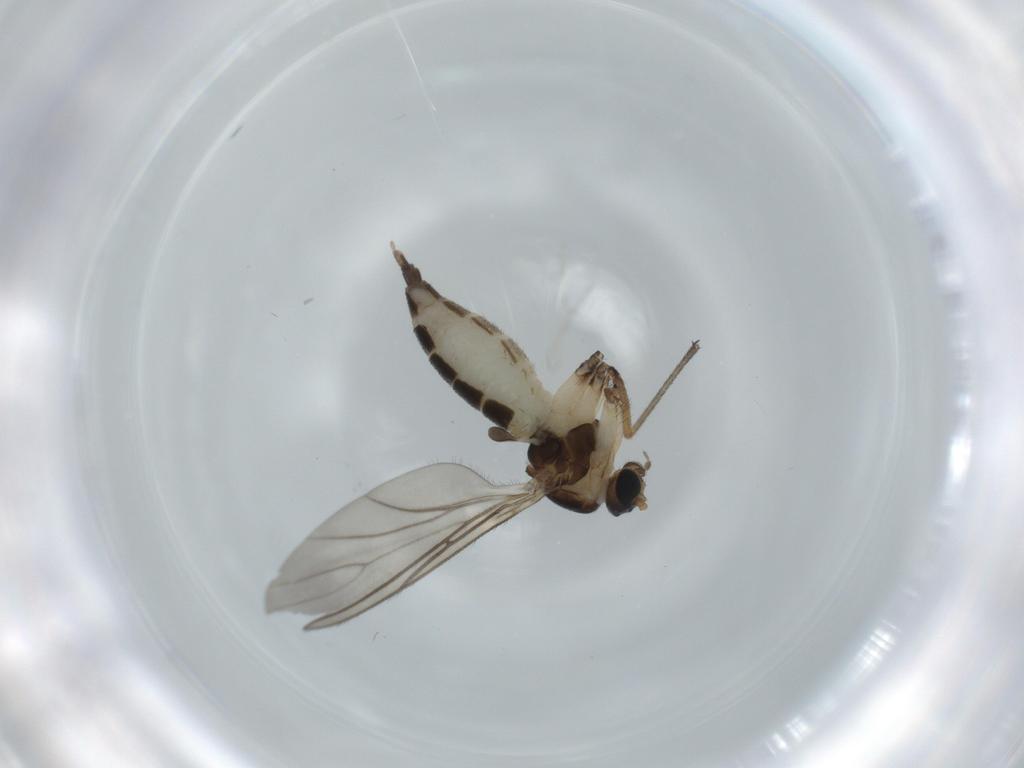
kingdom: Animalia
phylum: Arthropoda
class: Insecta
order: Diptera
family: Sciaridae
